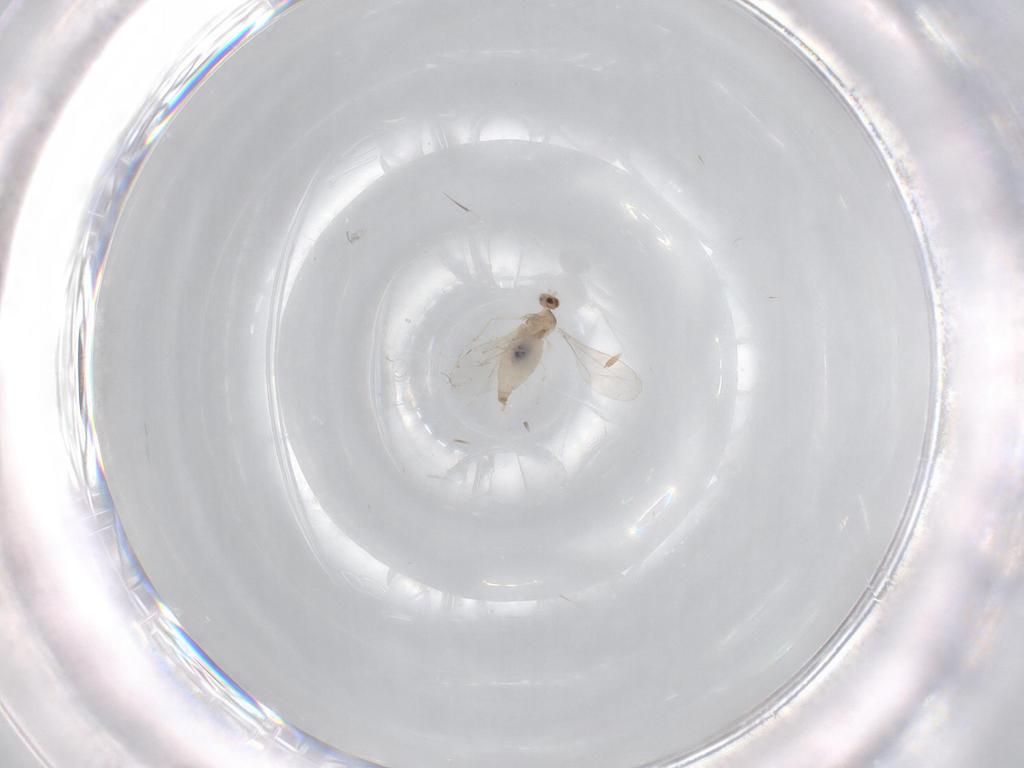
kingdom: Animalia
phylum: Arthropoda
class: Insecta
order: Diptera
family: Cecidomyiidae
